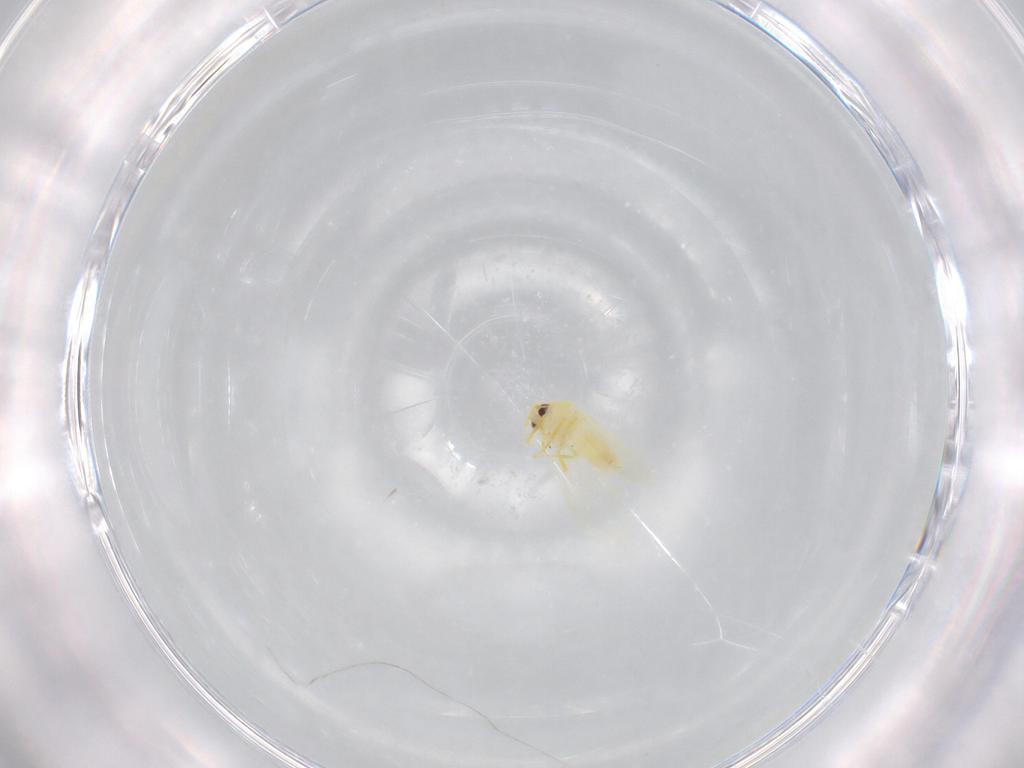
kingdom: Animalia
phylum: Arthropoda
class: Insecta
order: Hemiptera
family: Aleyrodidae
